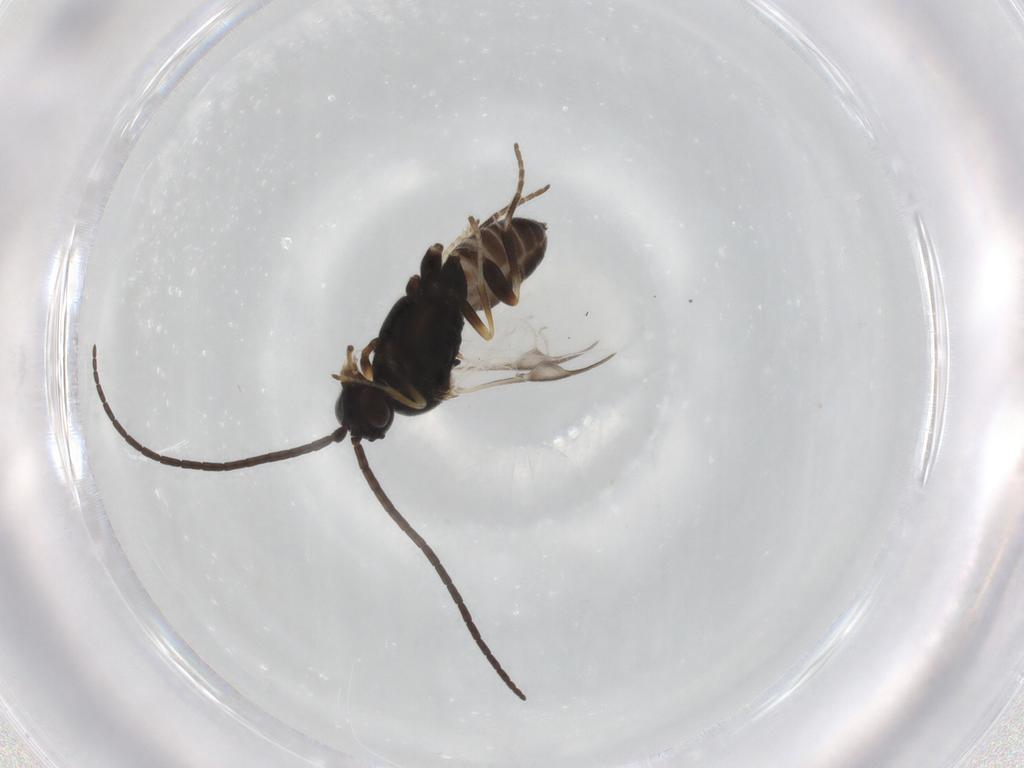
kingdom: Animalia
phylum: Arthropoda
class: Insecta
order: Hymenoptera
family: Braconidae
